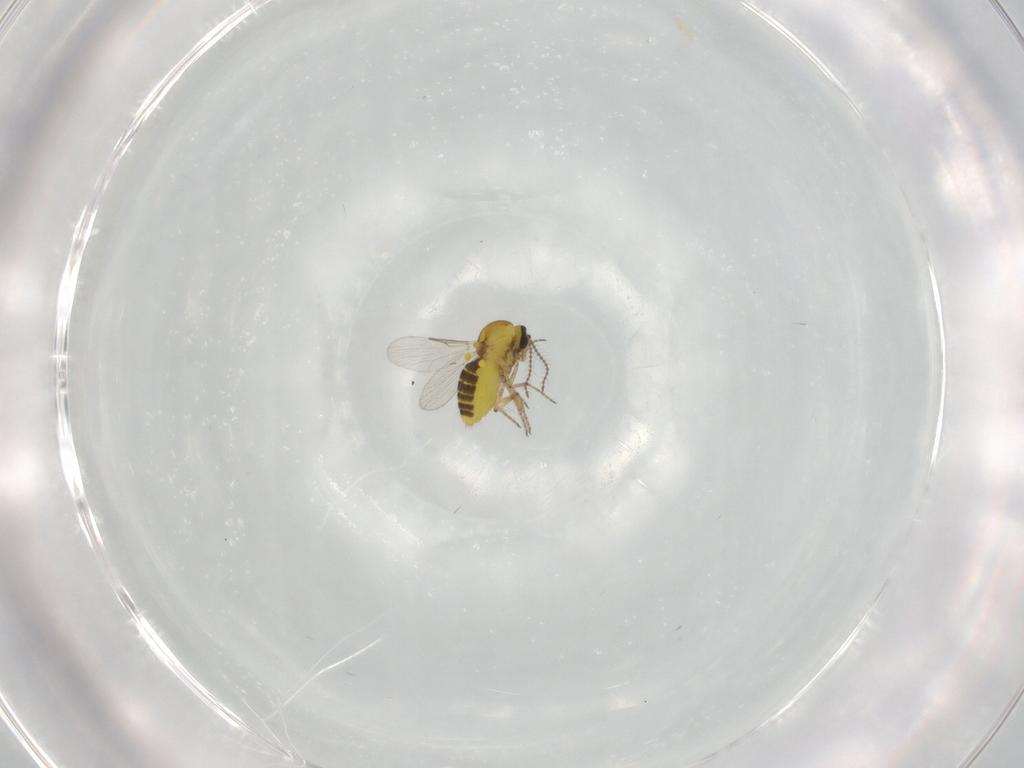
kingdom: Animalia
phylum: Arthropoda
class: Insecta
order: Diptera
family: Ceratopogonidae
